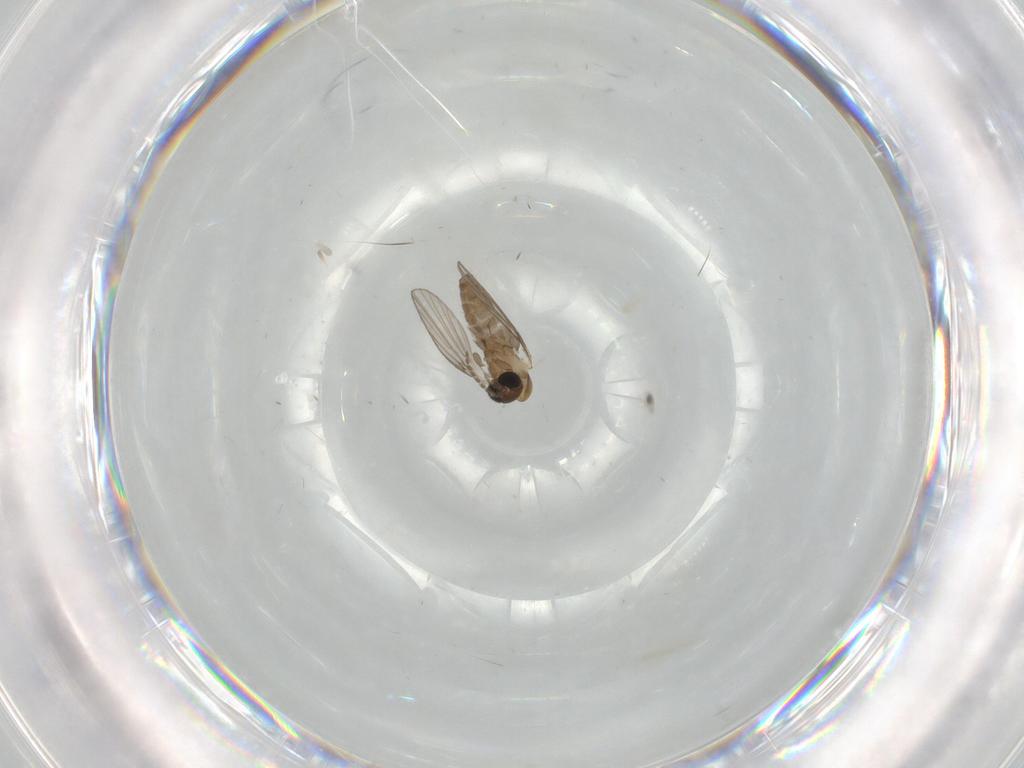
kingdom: Animalia
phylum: Arthropoda
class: Insecta
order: Diptera
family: Psychodidae
